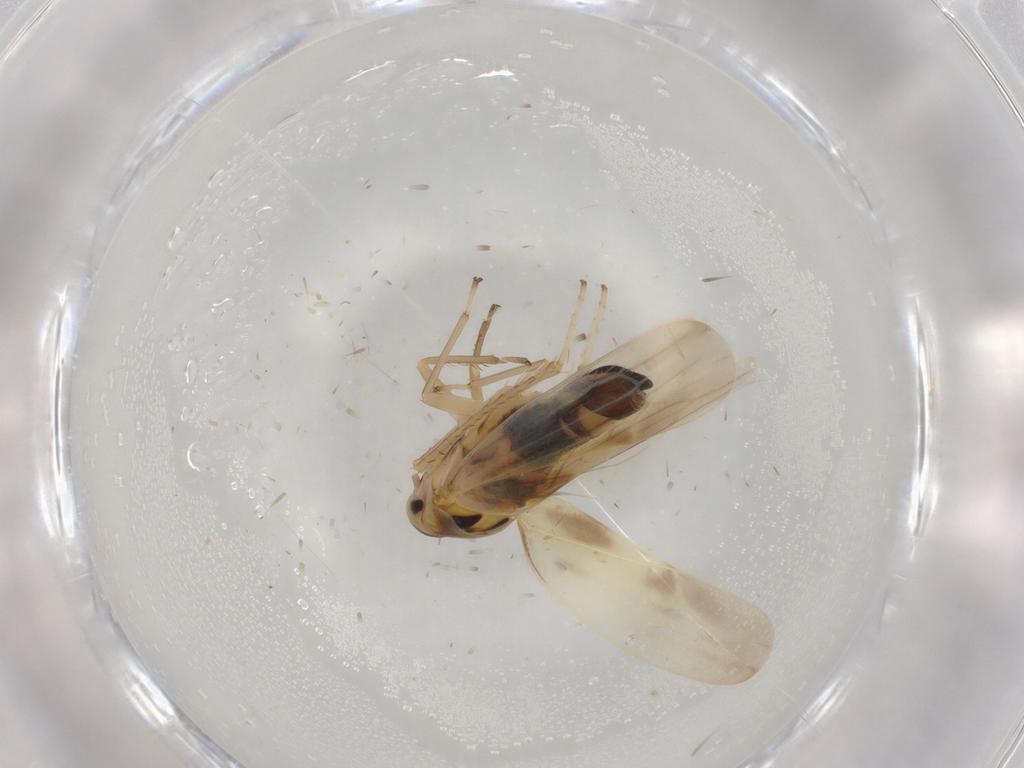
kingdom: Animalia
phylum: Arthropoda
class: Insecta
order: Hemiptera
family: Cicadellidae
